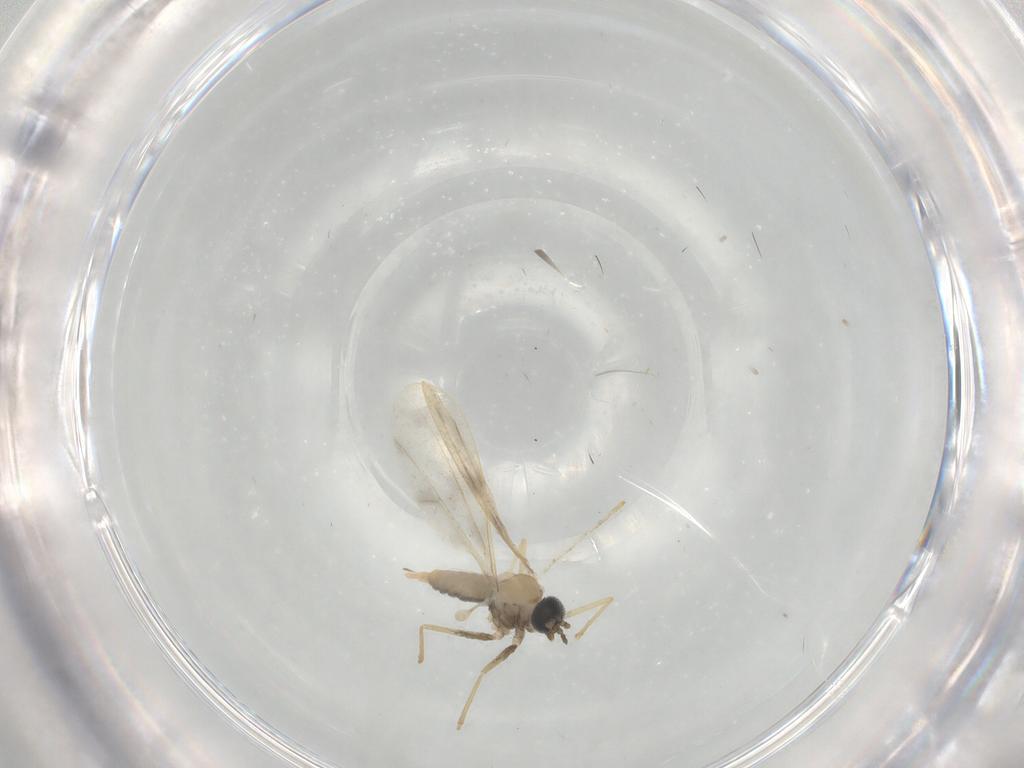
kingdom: Animalia
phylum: Arthropoda
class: Insecta
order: Diptera
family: Cecidomyiidae
